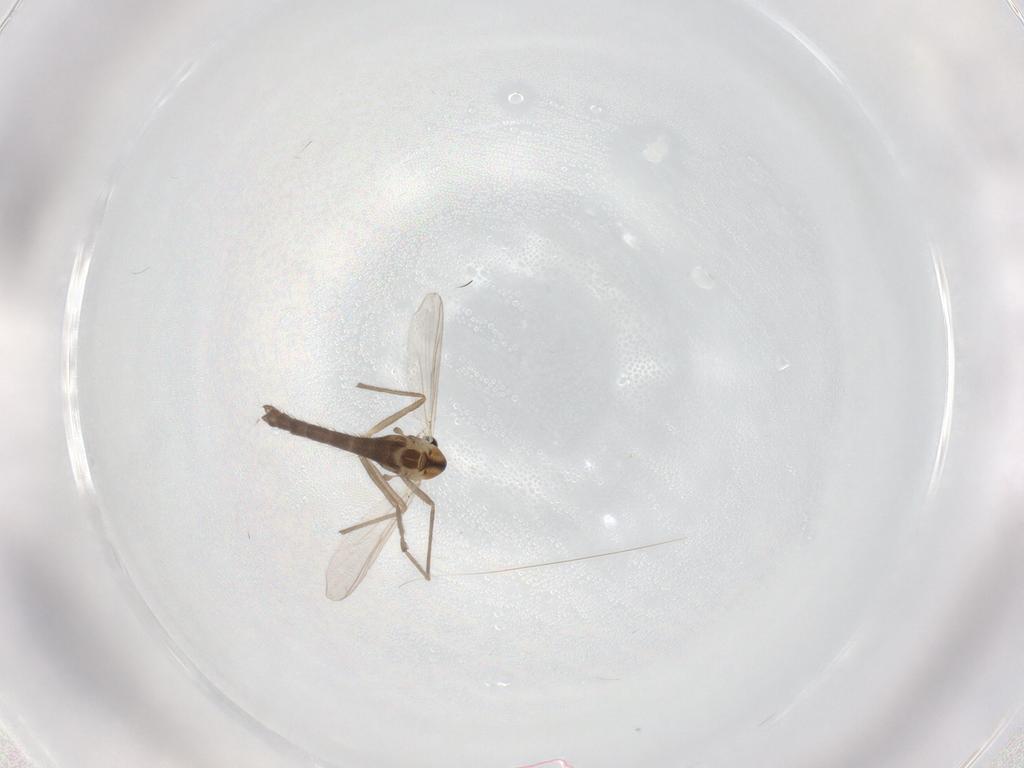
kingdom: Animalia
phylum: Arthropoda
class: Insecta
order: Diptera
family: Chironomidae
